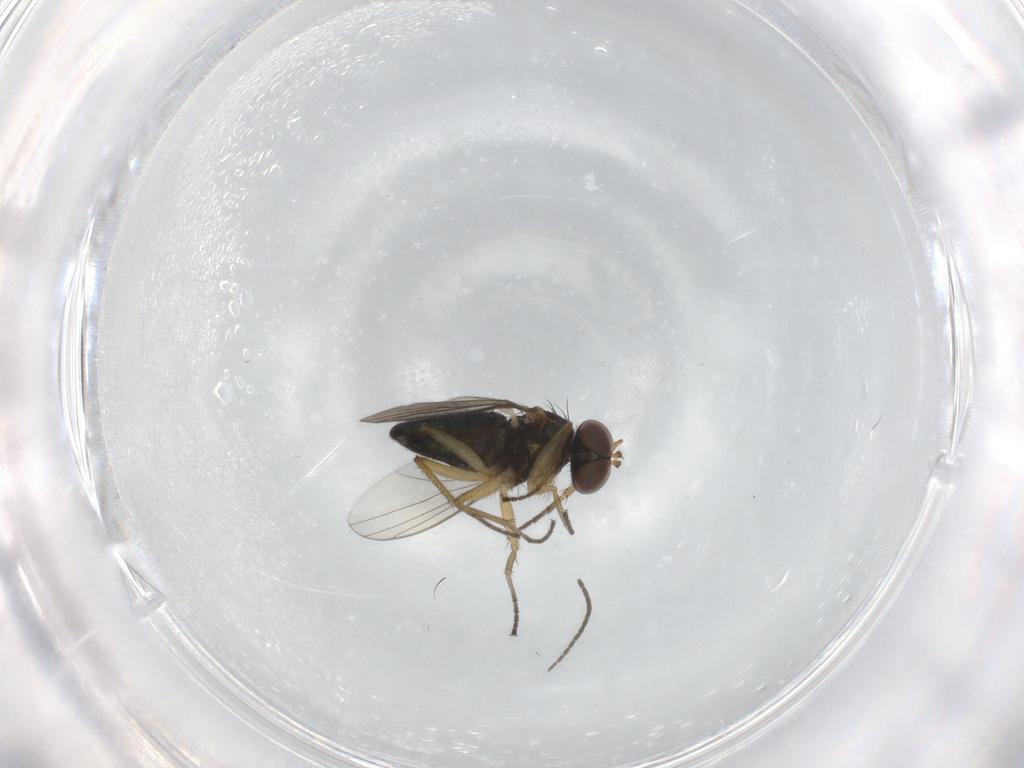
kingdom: Animalia
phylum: Arthropoda
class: Insecta
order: Diptera
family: Sciaridae
